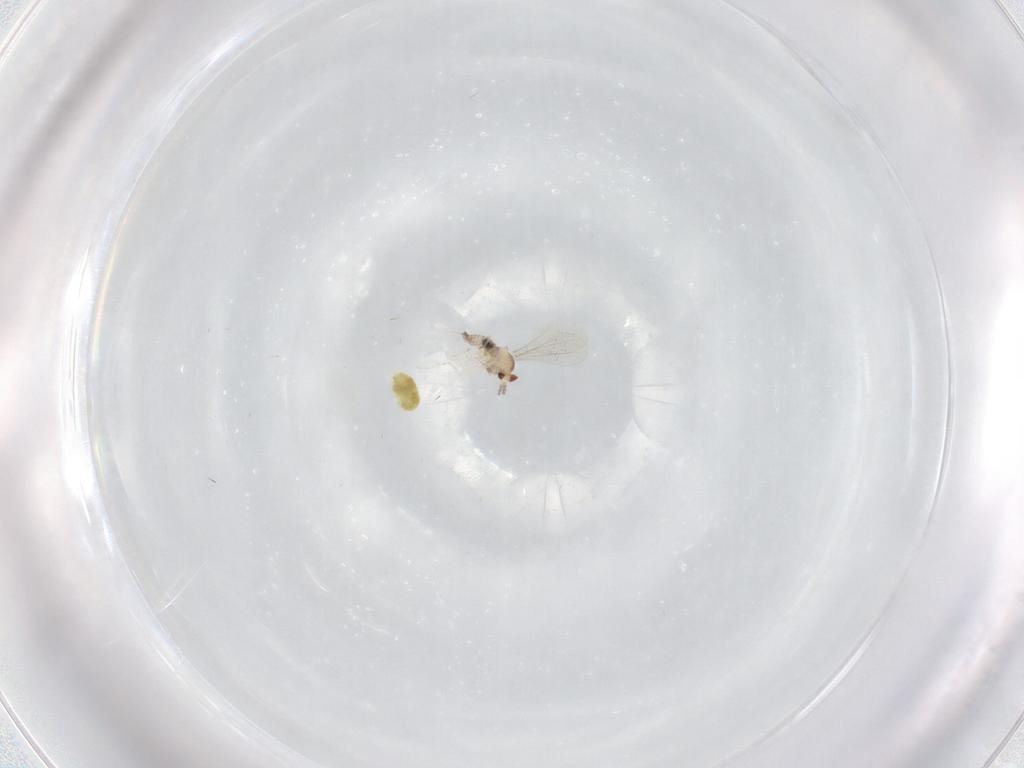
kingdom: Animalia
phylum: Arthropoda
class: Insecta
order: Diptera
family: Cecidomyiidae
